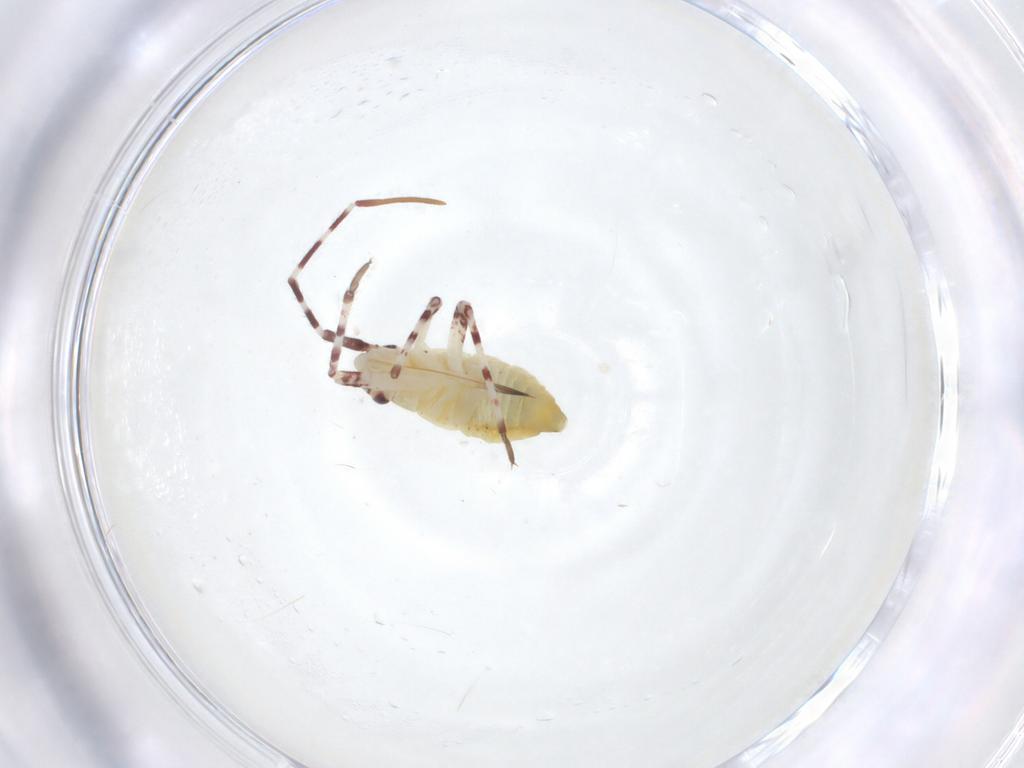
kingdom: Animalia
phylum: Arthropoda
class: Insecta
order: Hemiptera
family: Miridae
